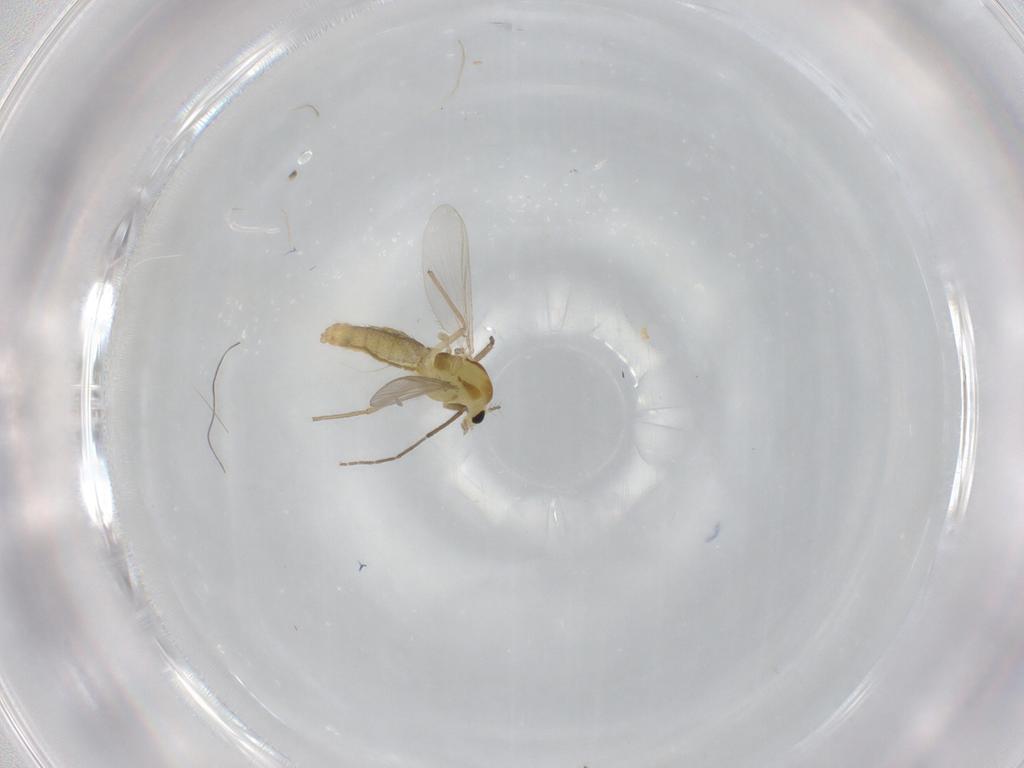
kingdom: Animalia
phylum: Arthropoda
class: Insecta
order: Diptera
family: Chironomidae
